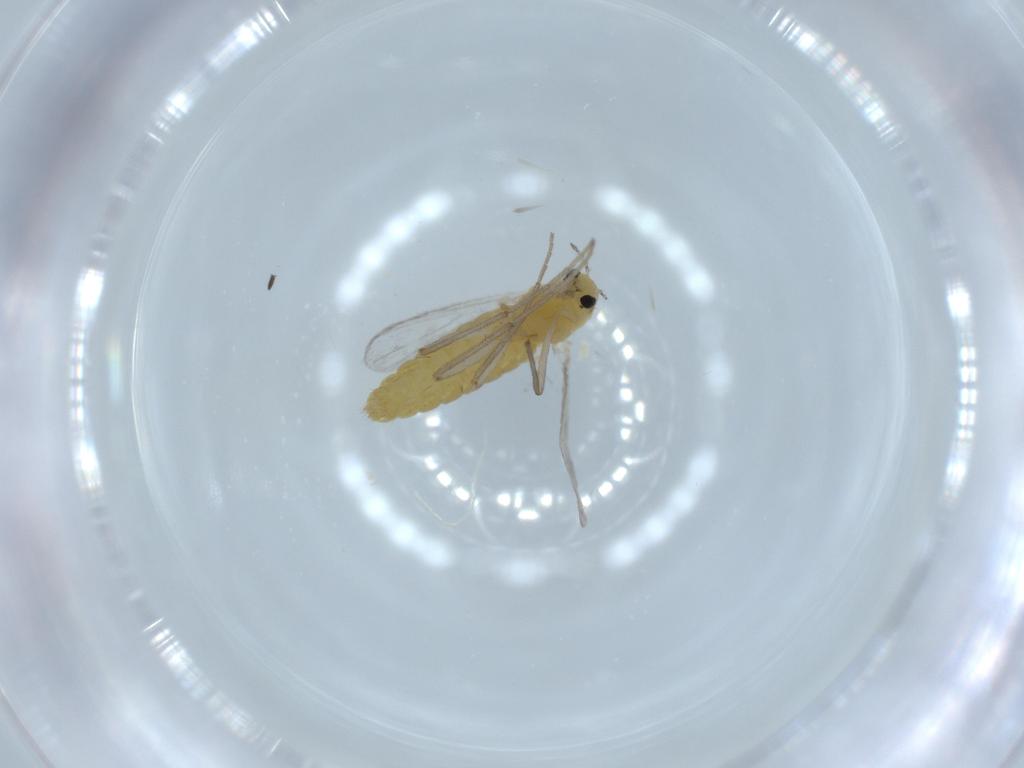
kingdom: Animalia
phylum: Arthropoda
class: Insecta
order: Diptera
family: Chironomidae
